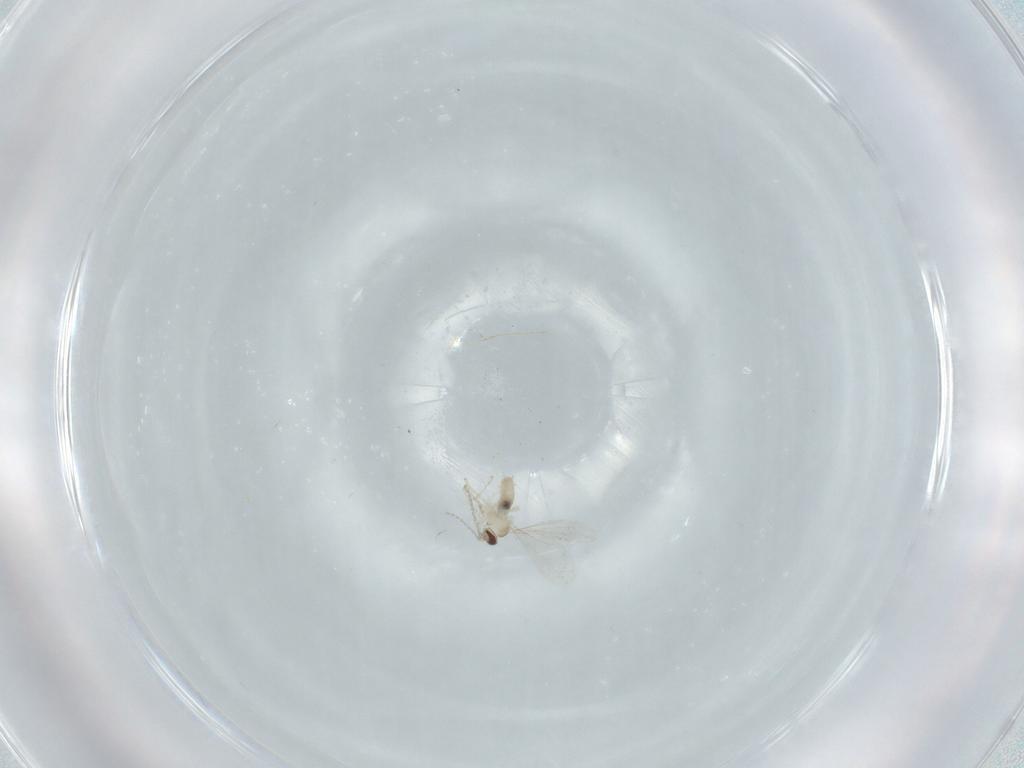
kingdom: Animalia
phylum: Arthropoda
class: Insecta
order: Diptera
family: Cecidomyiidae
